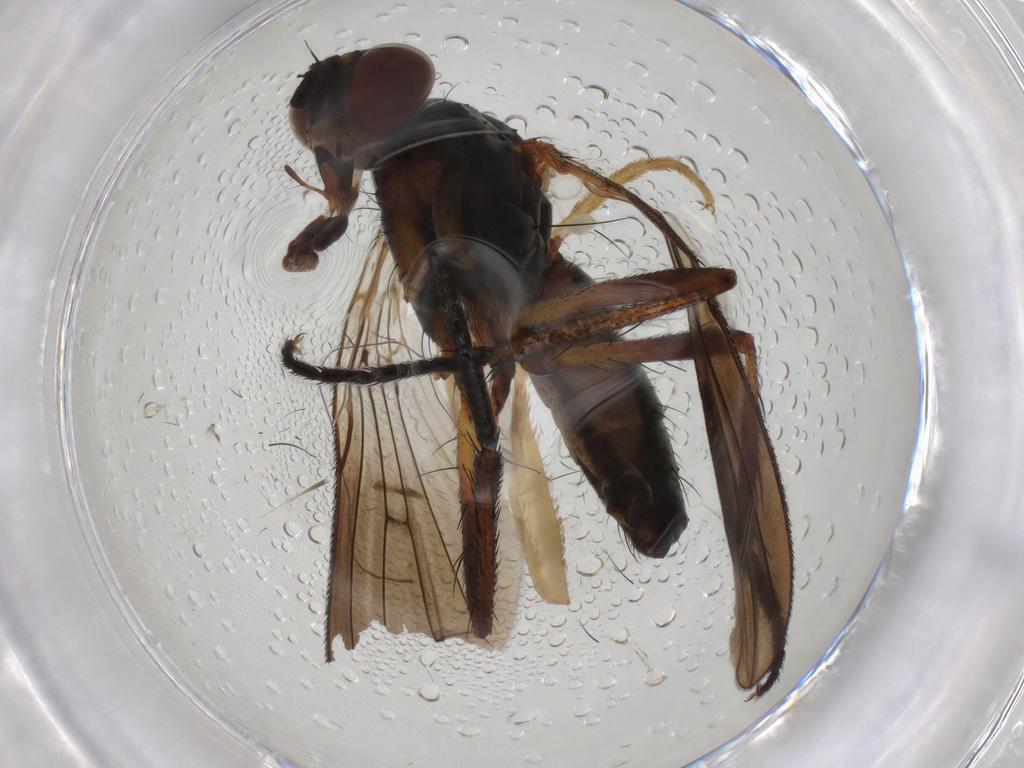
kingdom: Animalia
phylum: Arthropoda
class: Insecta
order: Diptera
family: Anthomyiidae
